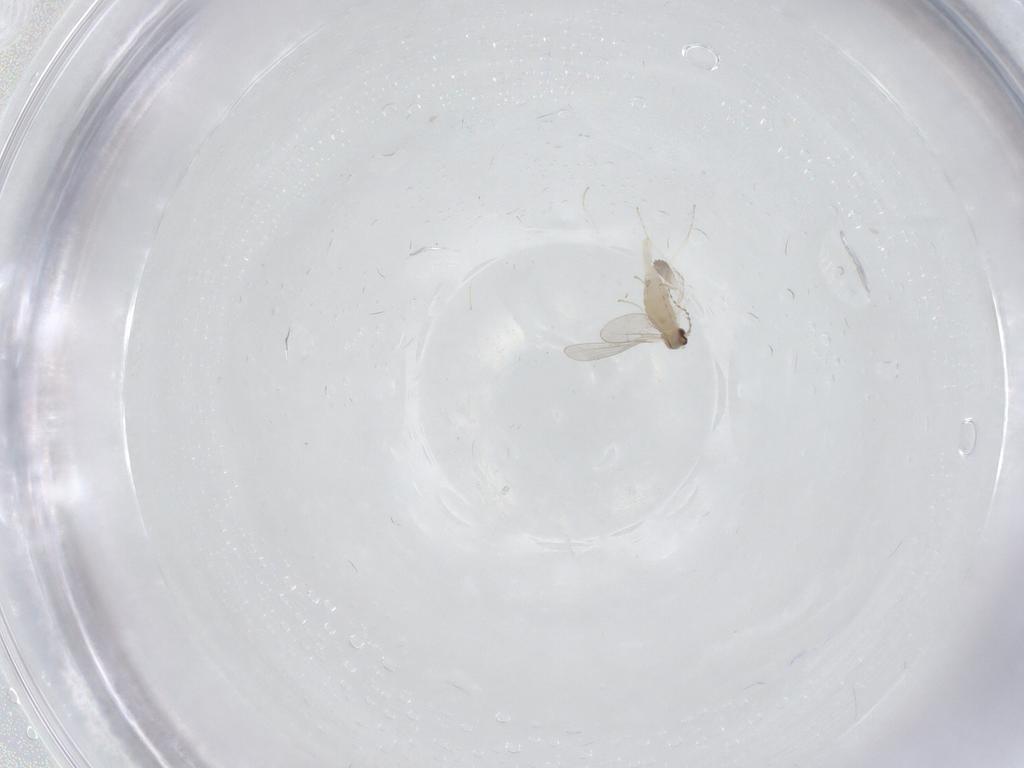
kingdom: Animalia
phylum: Arthropoda
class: Insecta
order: Diptera
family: Cecidomyiidae
